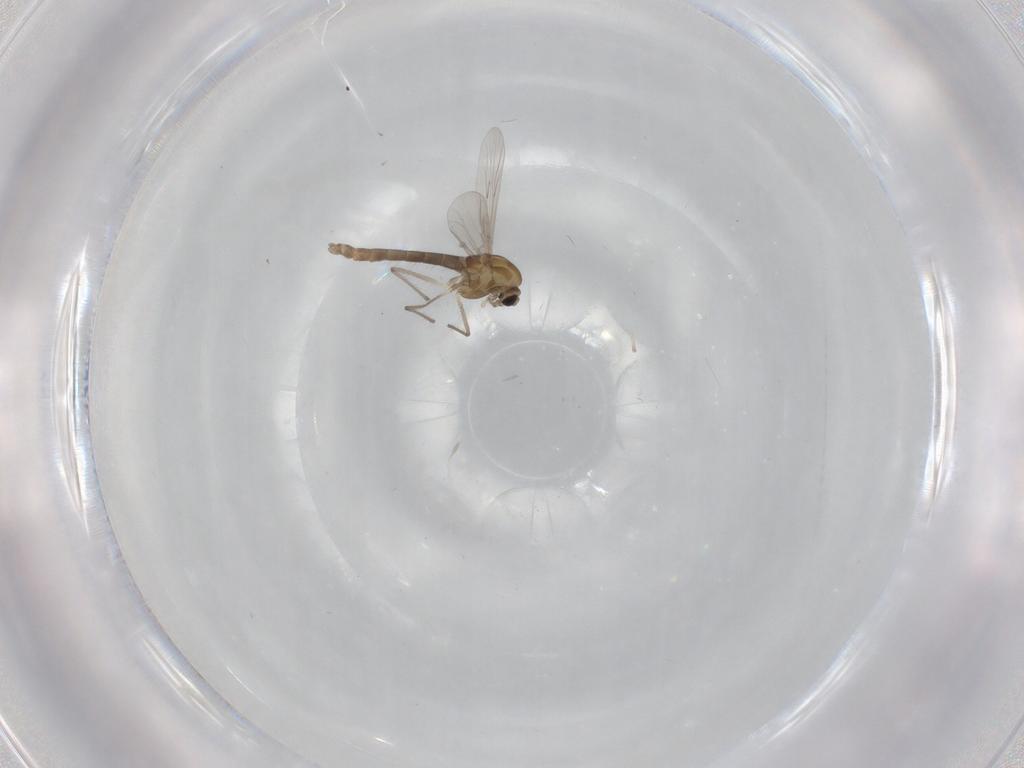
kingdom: Animalia
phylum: Arthropoda
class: Insecta
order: Diptera
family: Chironomidae
